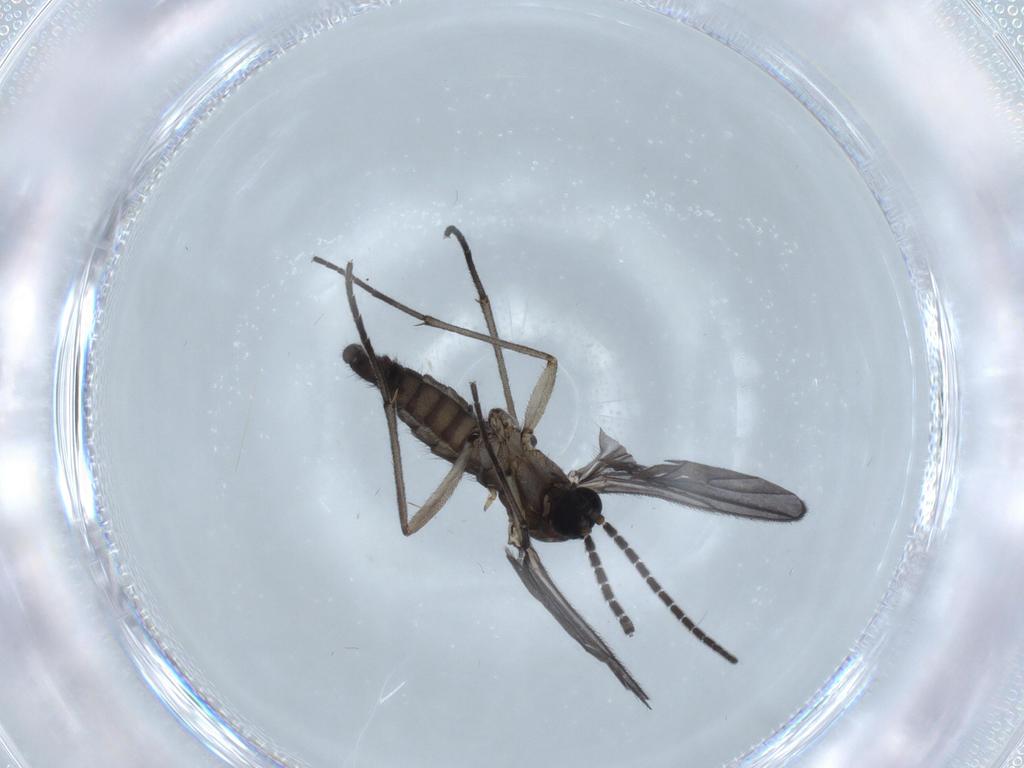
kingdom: Animalia
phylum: Arthropoda
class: Insecta
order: Diptera
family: Sciaridae
